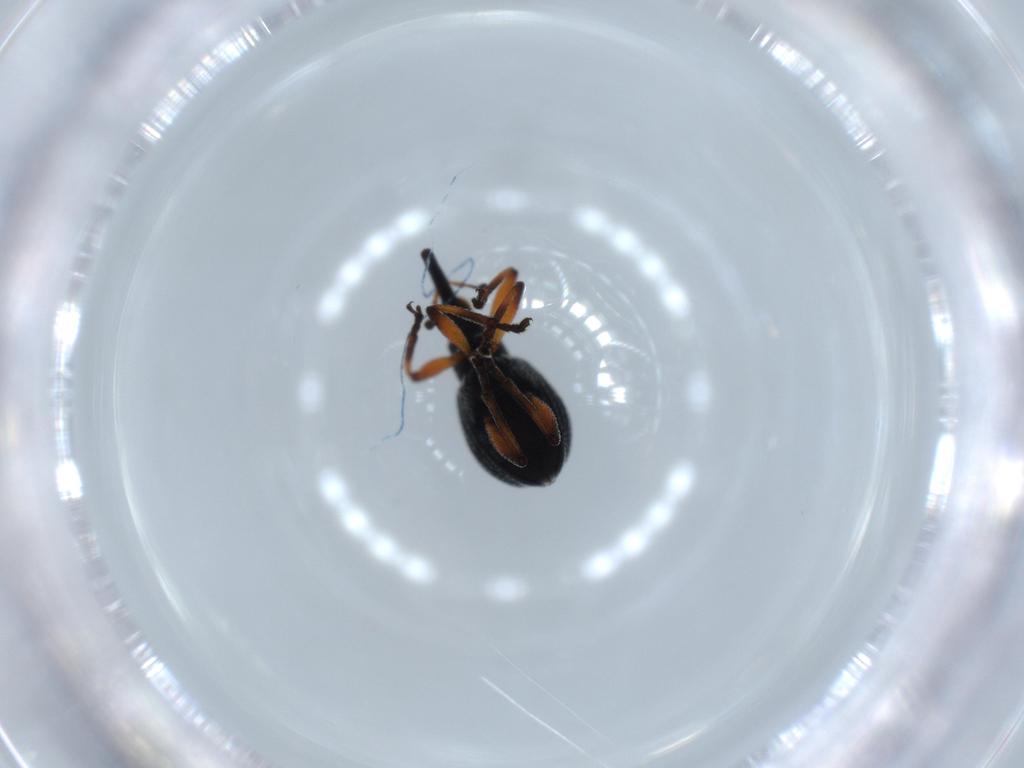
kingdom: Animalia
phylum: Arthropoda
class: Insecta
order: Coleoptera
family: Brentidae
